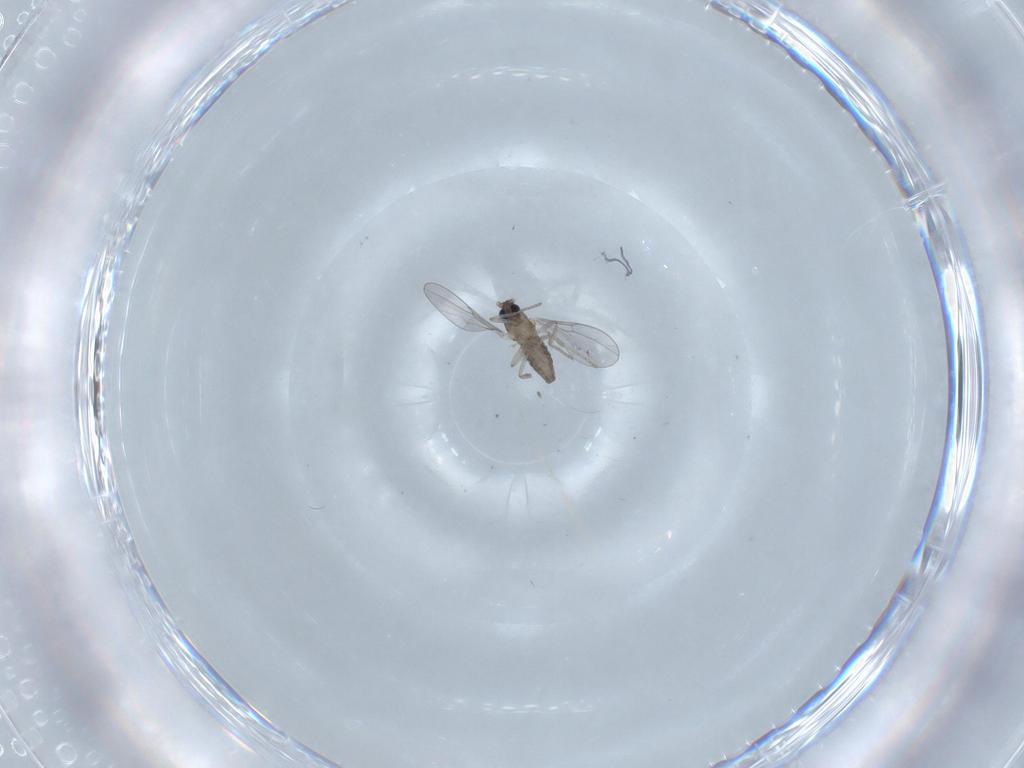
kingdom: Animalia
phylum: Arthropoda
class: Insecta
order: Diptera
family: Cecidomyiidae
